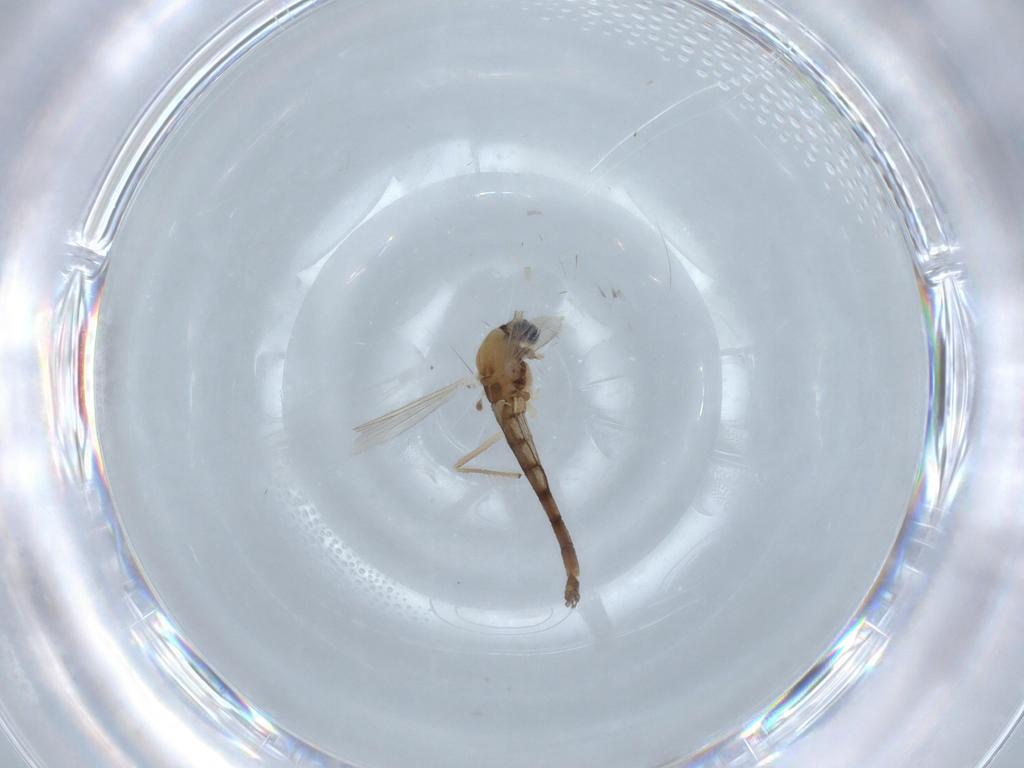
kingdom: Animalia
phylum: Arthropoda
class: Insecta
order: Diptera
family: Chironomidae
